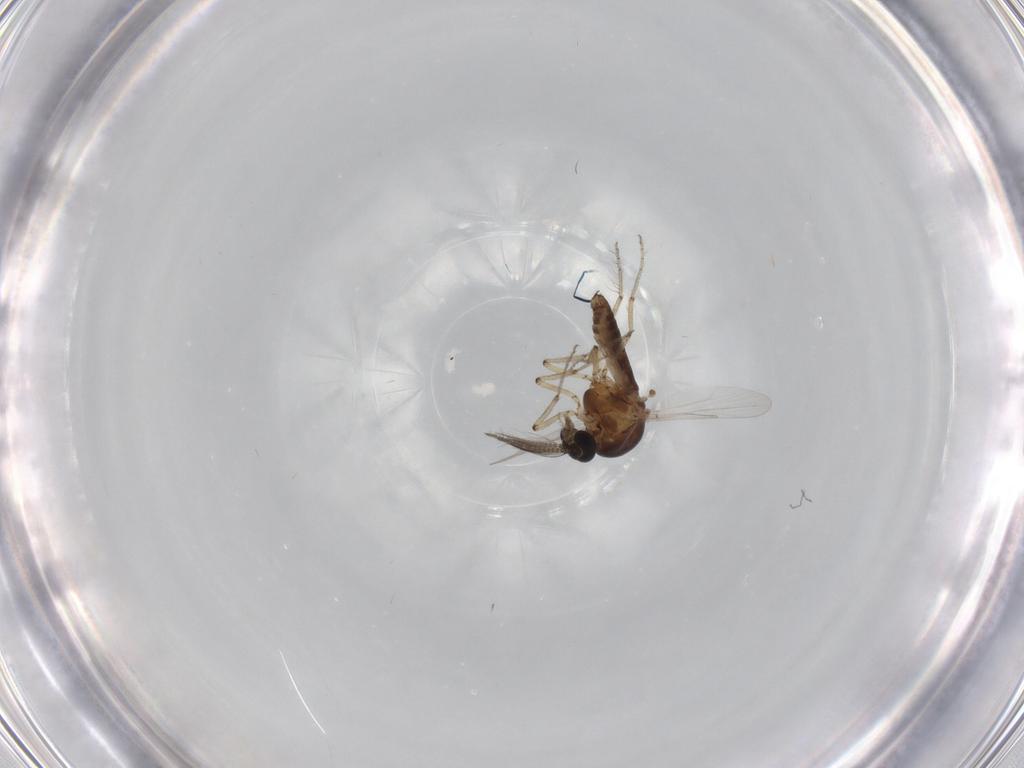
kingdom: Animalia
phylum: Arthropoda
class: Insecta
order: Diptera
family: Ceratopogonidae
